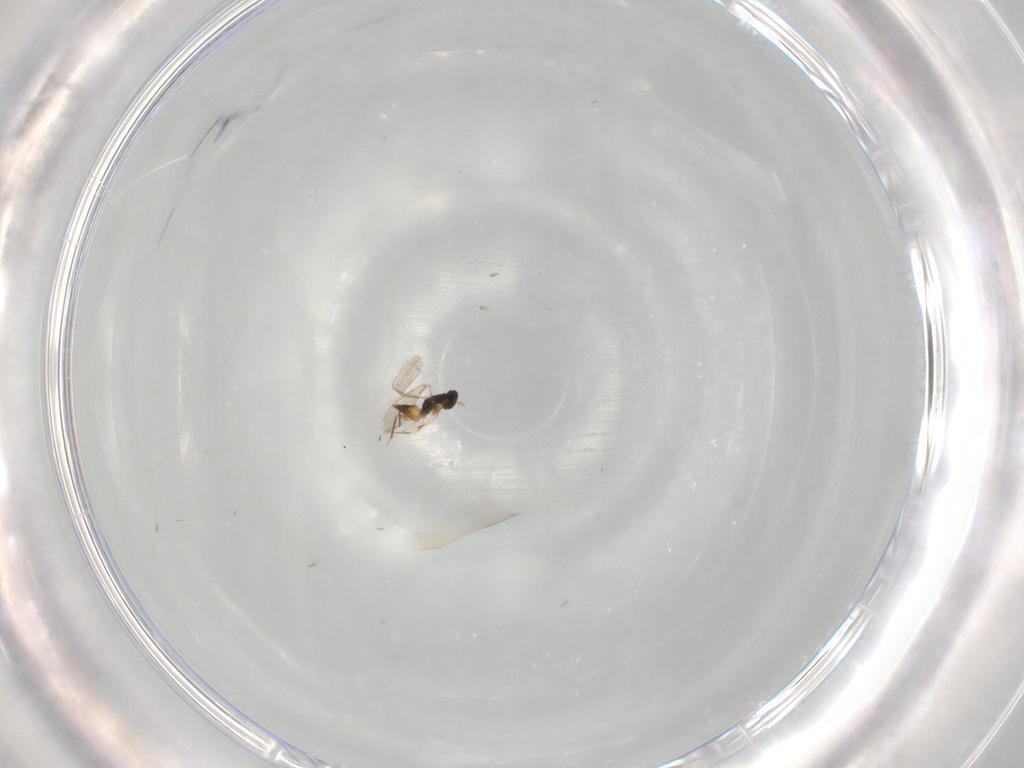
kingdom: Animalia
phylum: Arthropoda
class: Insecta
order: Hymenoptera
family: Mymaridae
